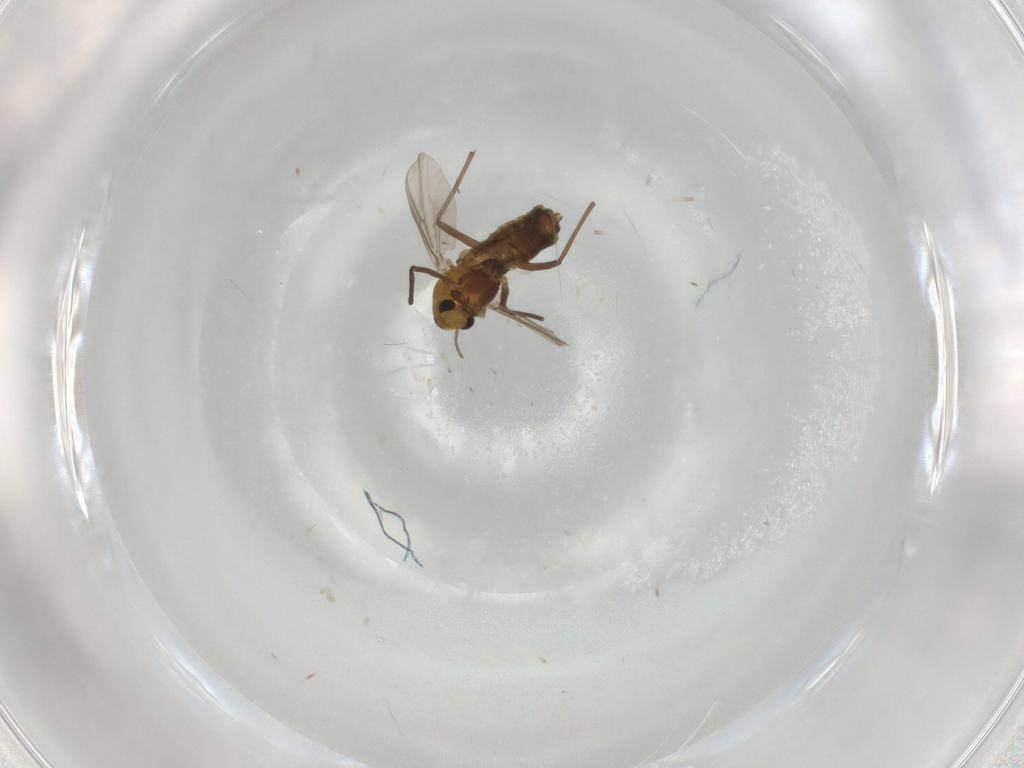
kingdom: Animalia
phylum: Arthropoda
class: Insecta
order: Diptera
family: Chironomidae
